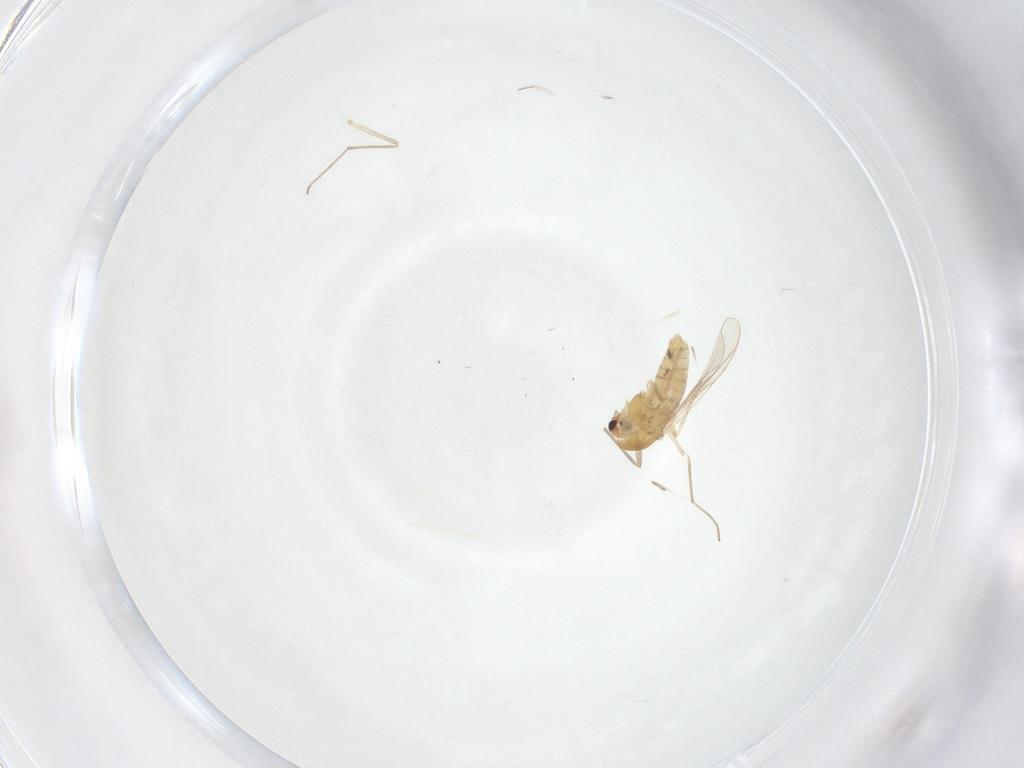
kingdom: Animalia
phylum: Arthropoda
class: Insecta
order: Diptera
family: Chironomidae
